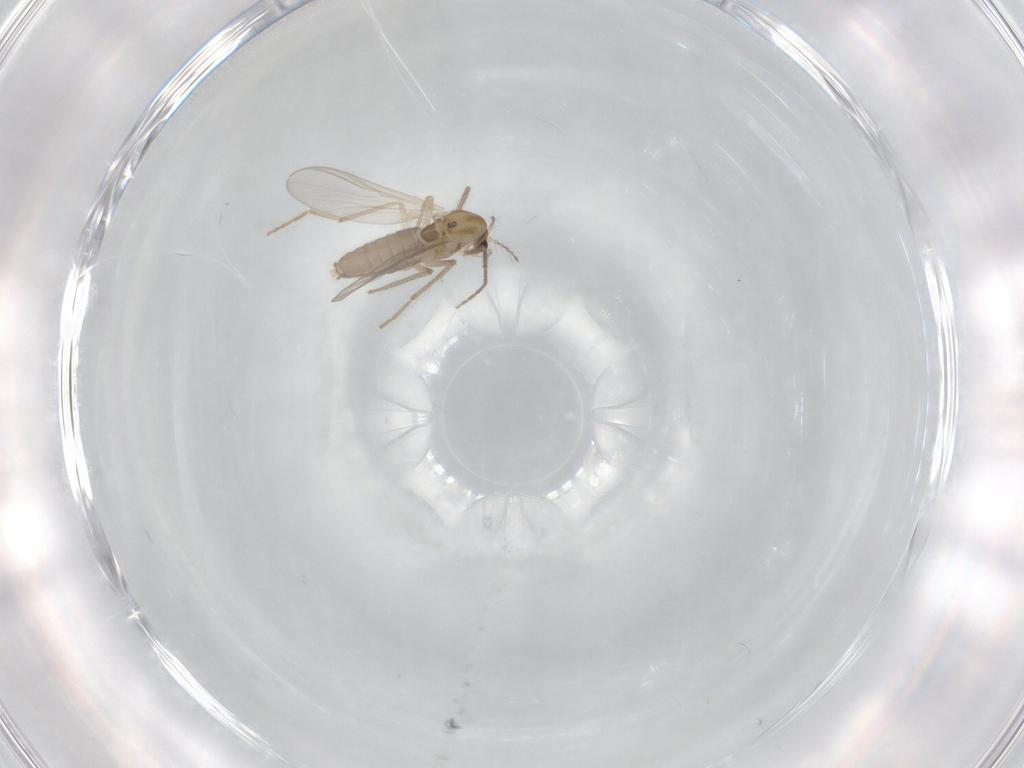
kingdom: Animalia
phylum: Arthropoda
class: Insecta
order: Diptera
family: Chironomidae
